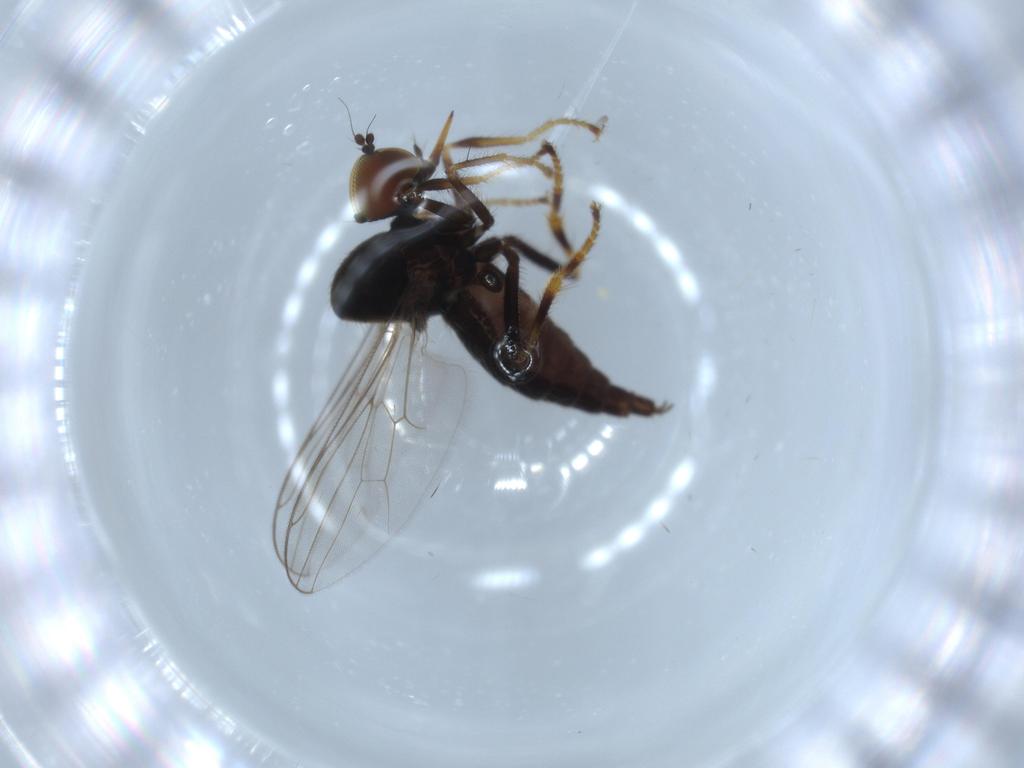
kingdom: Animalia
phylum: Arthropoda
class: Insecta
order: Diptera
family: Hybotidae
